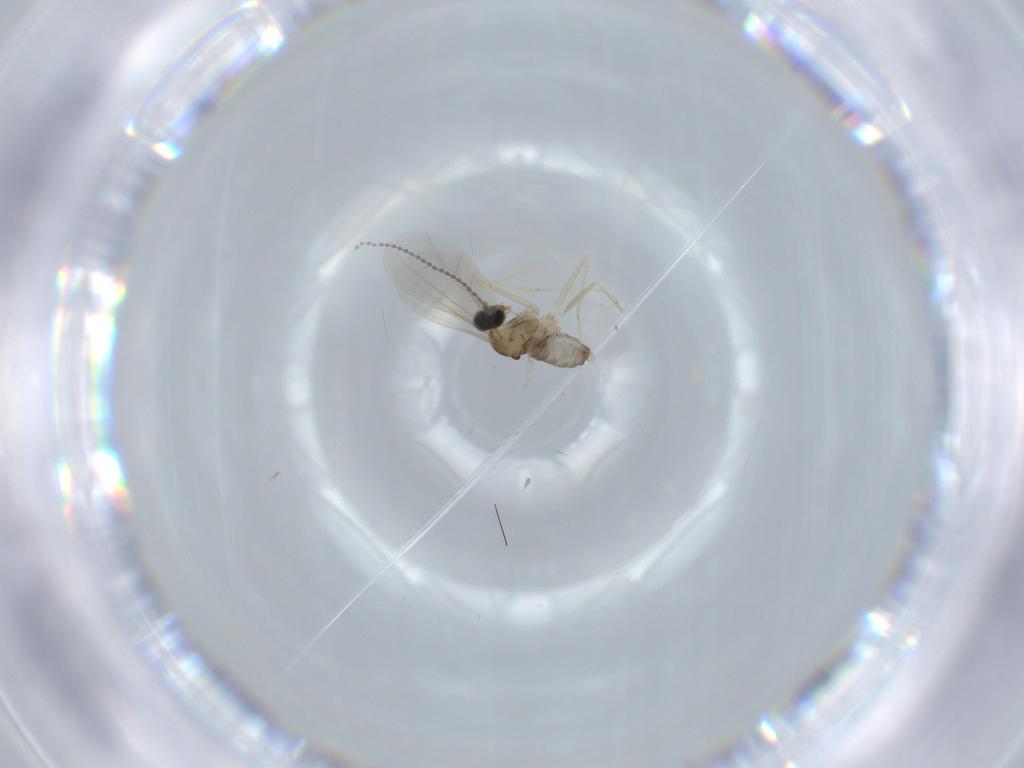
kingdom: Animalia
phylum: Arthropoda
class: Insecta
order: Diptera
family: Cecidomyiidae
